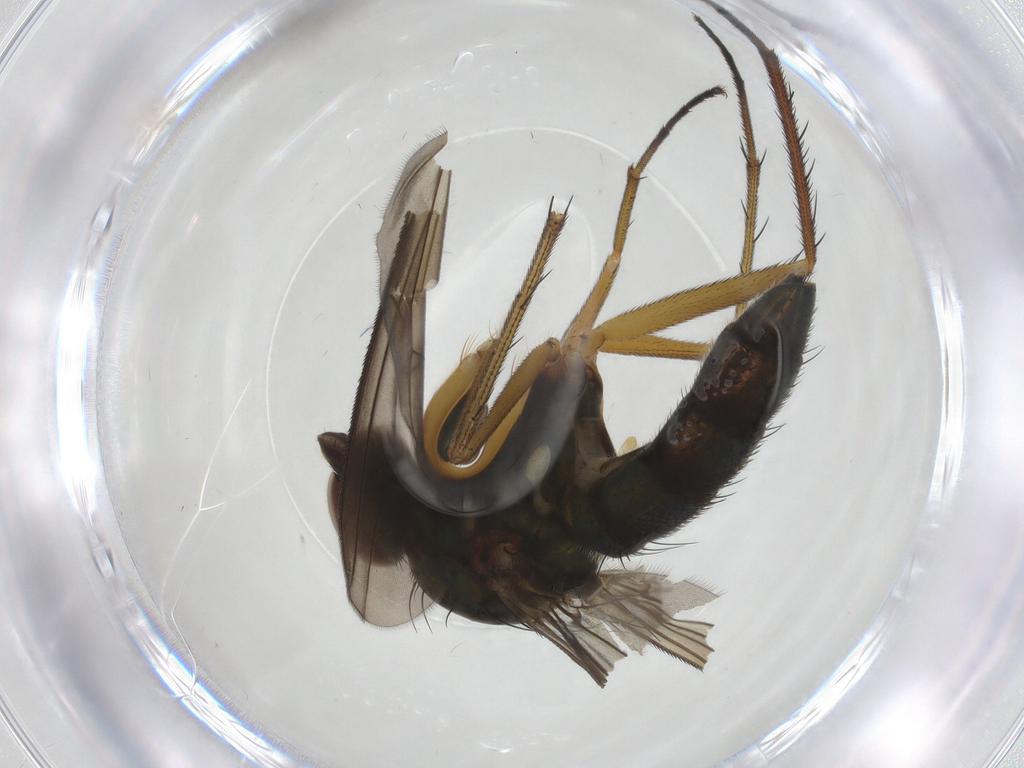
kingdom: Animalia
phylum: Arthropoda
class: Insecta
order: Diptera
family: Dolichopodidae
